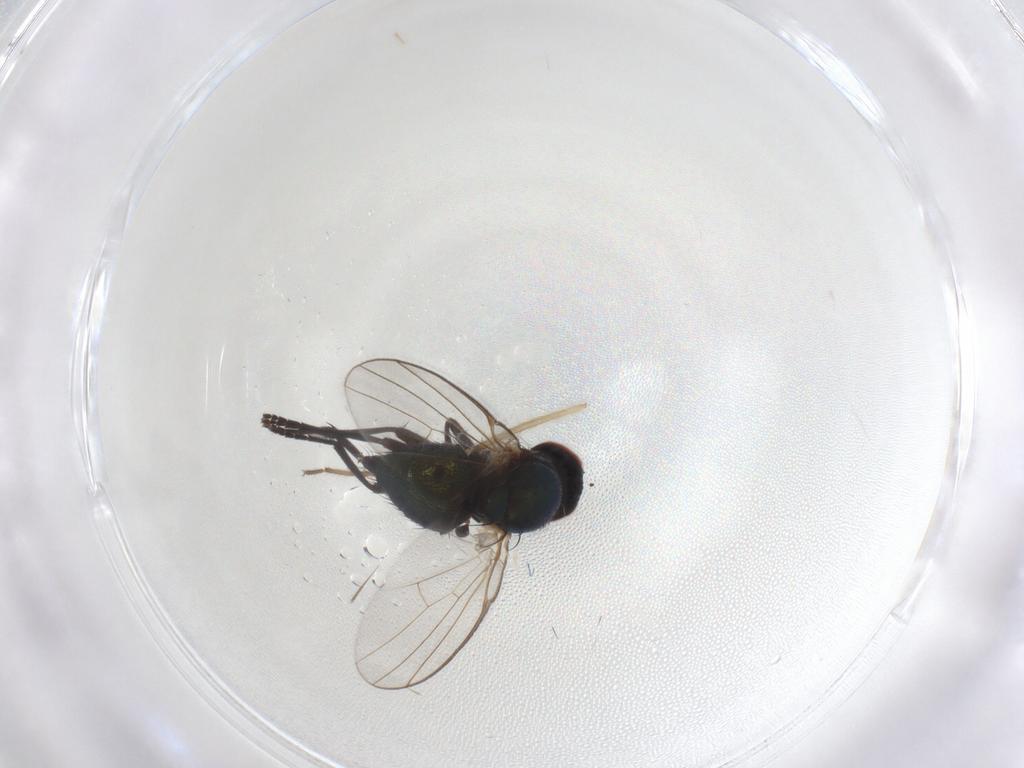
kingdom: Animalia
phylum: Arthropoda
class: Insecta
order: Diptera
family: Agromyzidae
